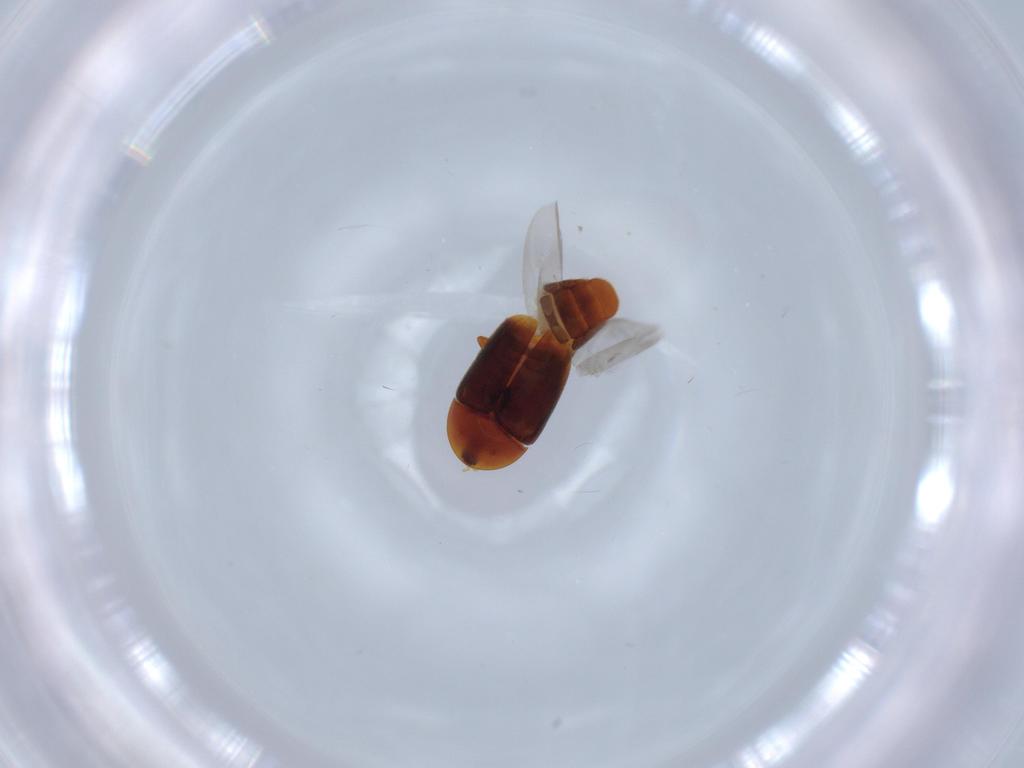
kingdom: Animalia
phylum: Arthropoda
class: Insecta
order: Coleoptera
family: Corylophidae
